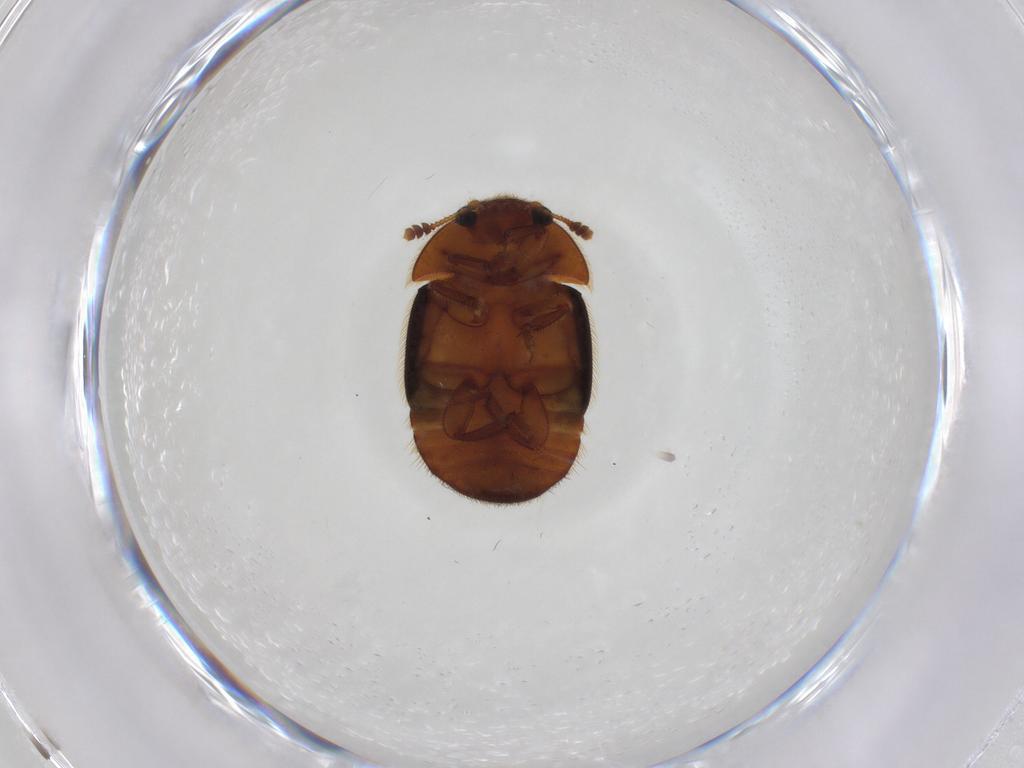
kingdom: Animalia
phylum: Arthropoda
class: Insecta
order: Coleoptera
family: Nitidulidae
